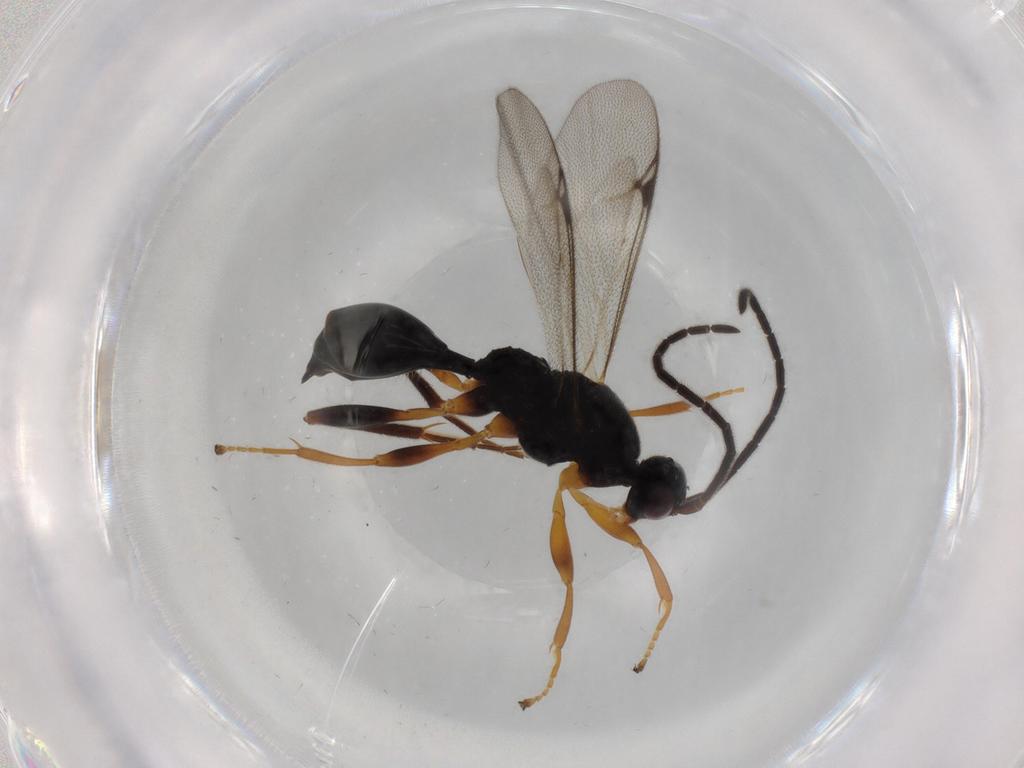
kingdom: Animalia
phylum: Arthropoda
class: Insecta
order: Hymenoptera
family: Proctotrupidae
